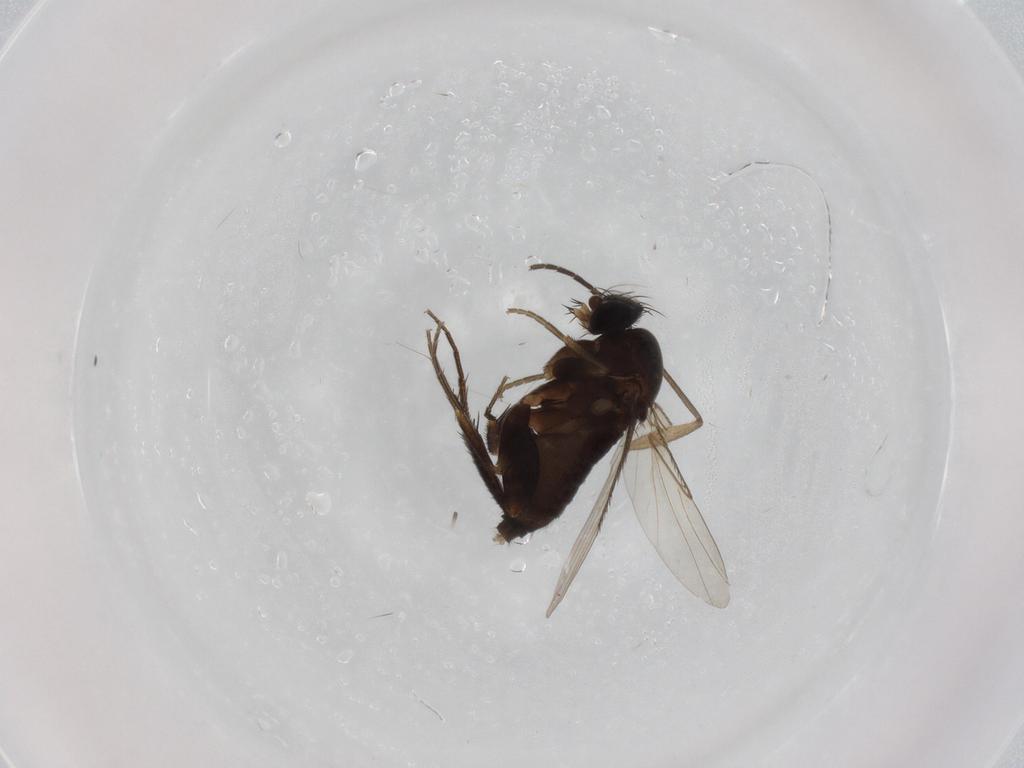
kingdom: Animalia
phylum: Arthropoda
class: Insecta
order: Diptera
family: Phoridae
